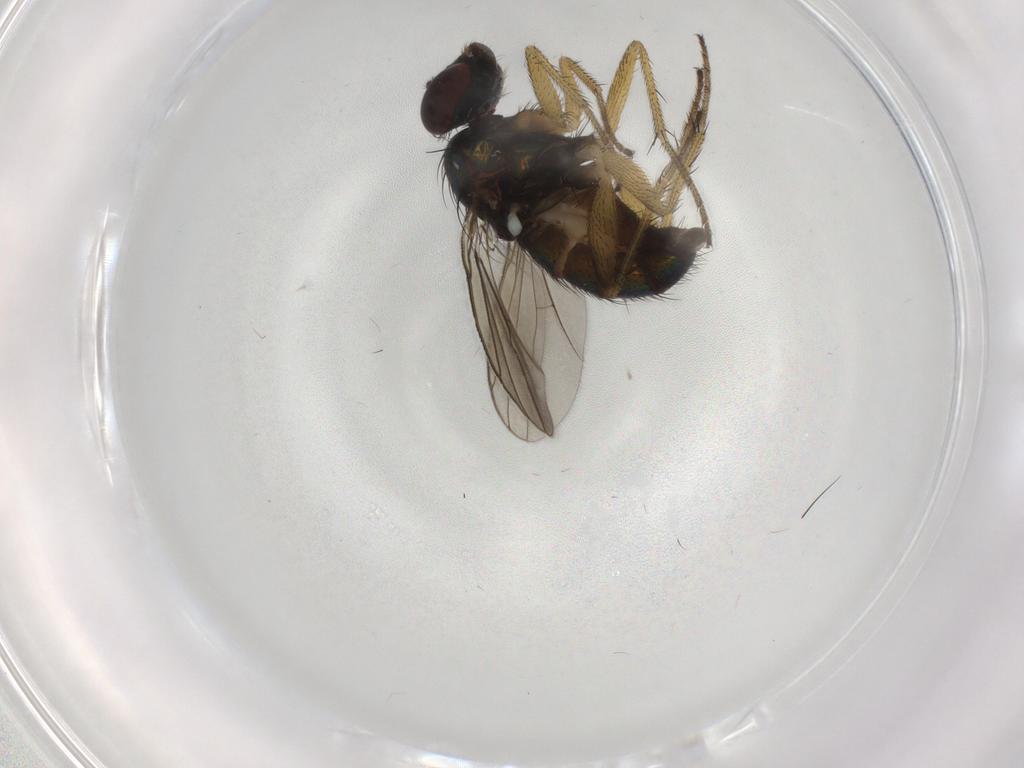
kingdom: Animalia
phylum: Arthropoda
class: Insecta
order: Diptera
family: Dolichopodidae
